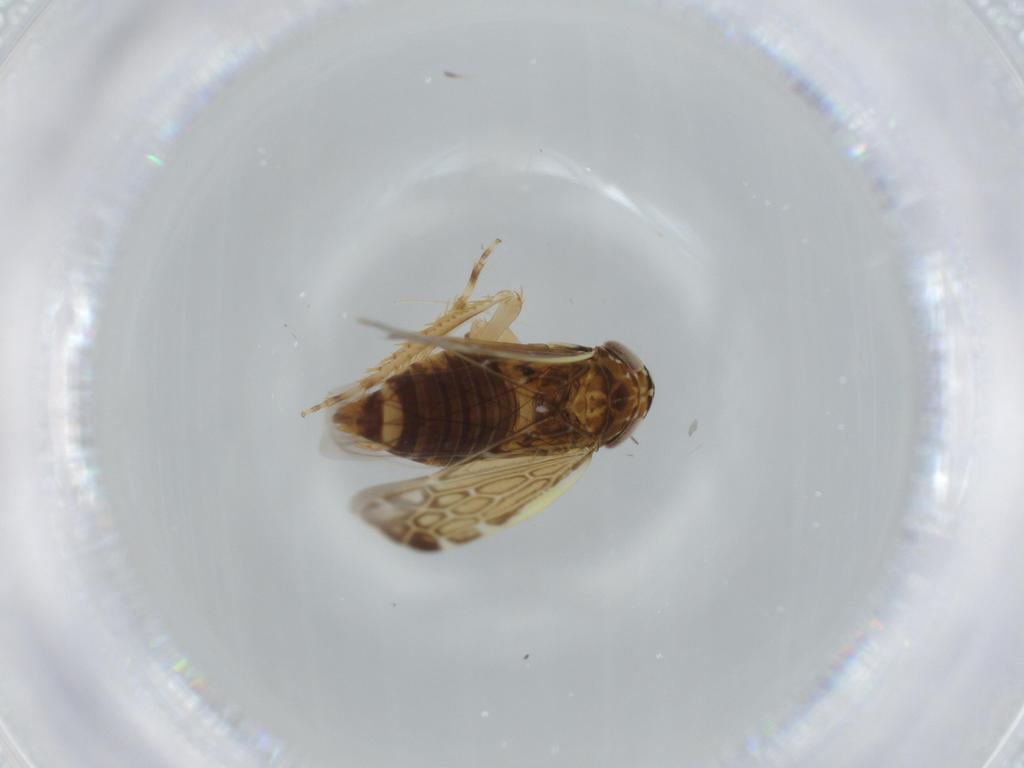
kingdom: Animalia
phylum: Arthropoda
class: Insecta
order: Hemiptera
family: Cicadellidae
